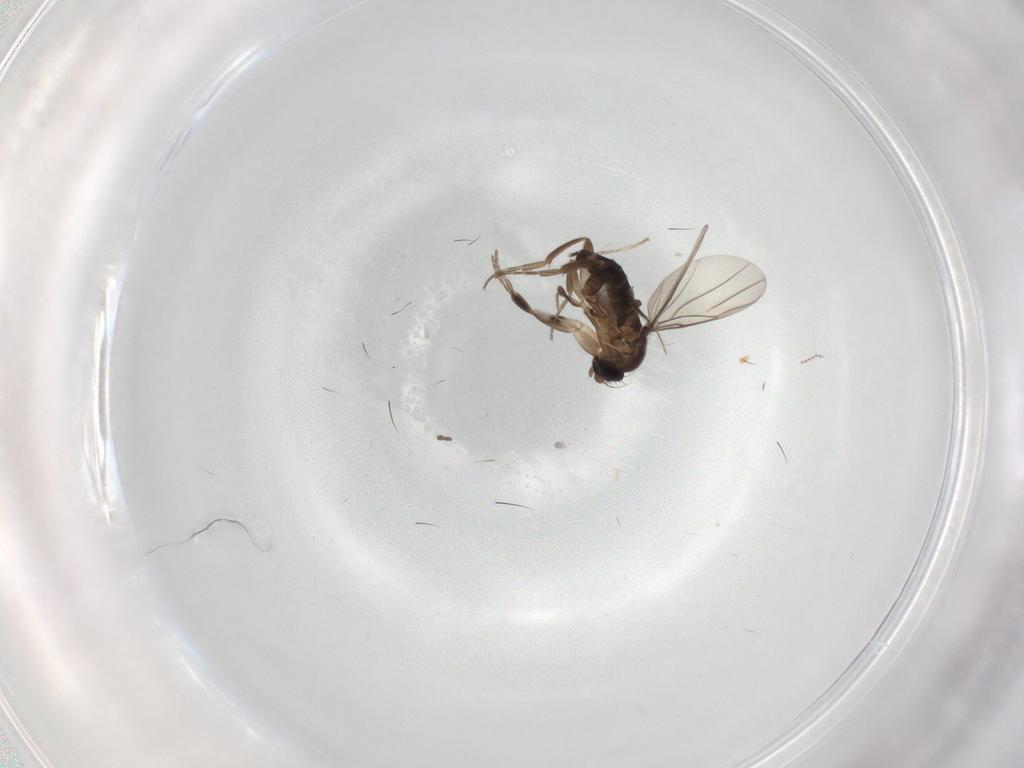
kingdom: Animalia
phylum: Arthropoda
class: Insecta
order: Diptera
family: Phoridae
